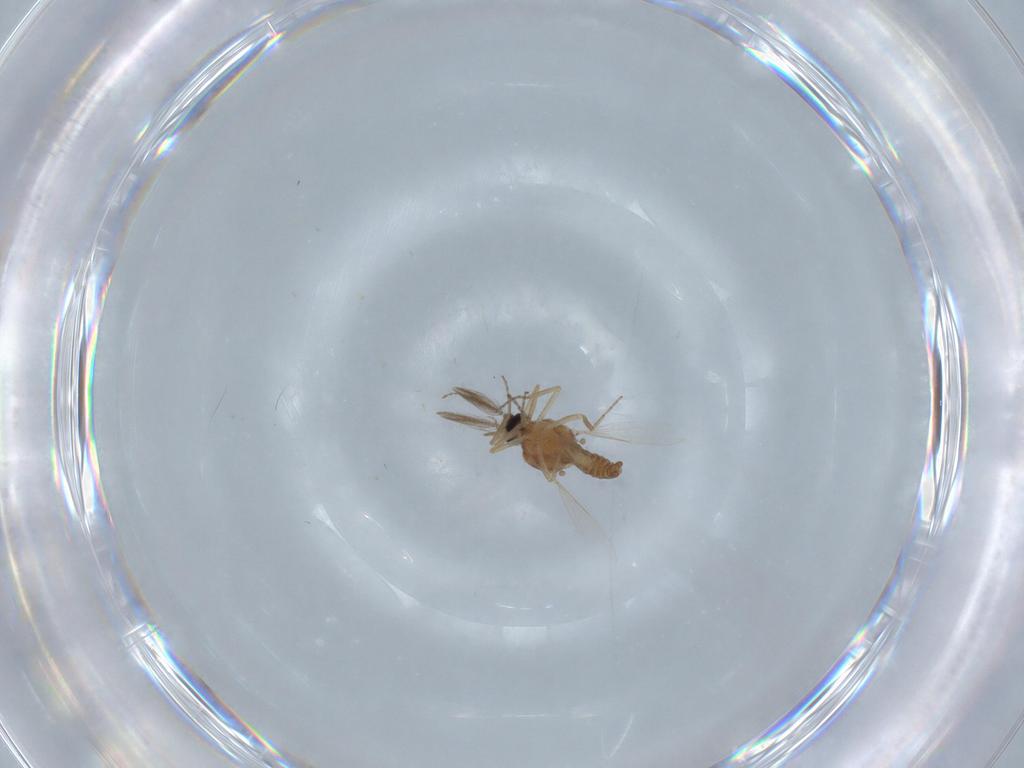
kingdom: Animalia
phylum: Arthropoda
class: Insecta
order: Diptera
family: Ceratopogonidae
